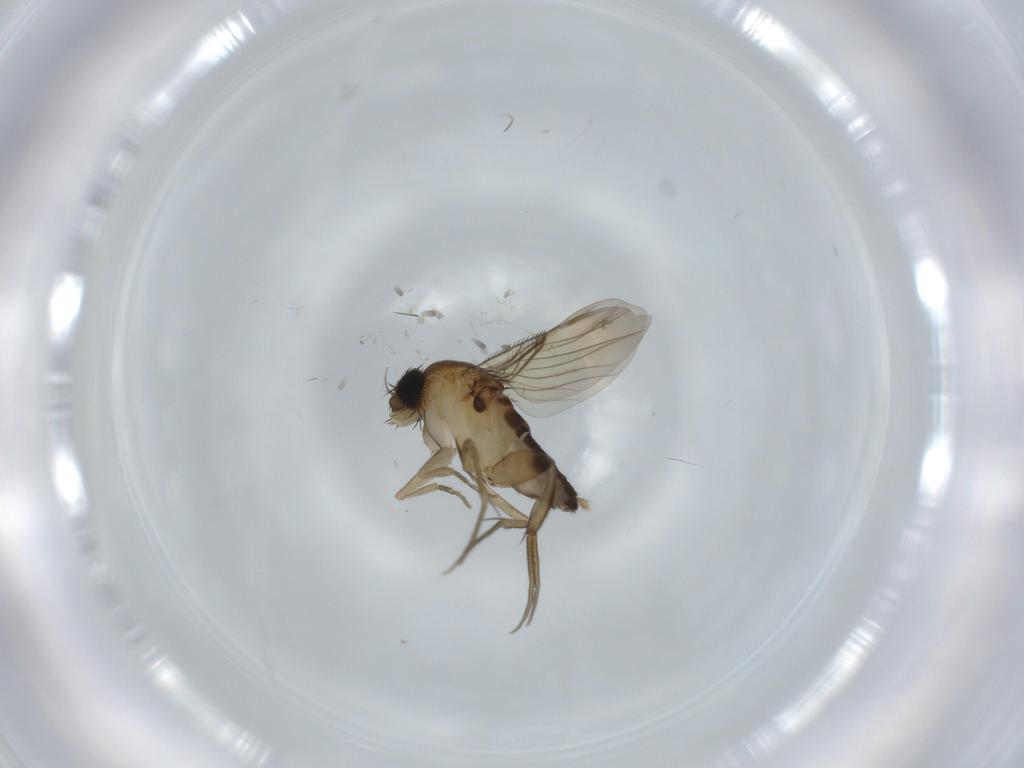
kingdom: Animalia
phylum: Arthropoda
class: Insecta
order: Diptera
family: Phoridae
